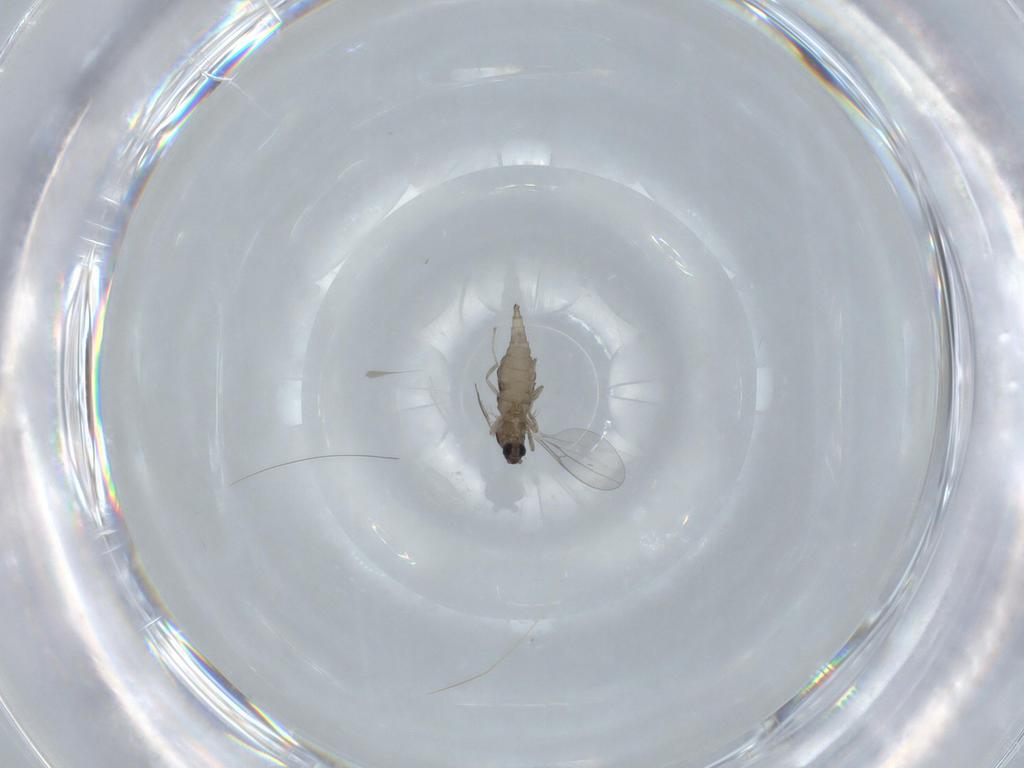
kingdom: Animalia
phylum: Arthropoda
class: Insecta
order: Diptera
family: Cecidomyiidae
